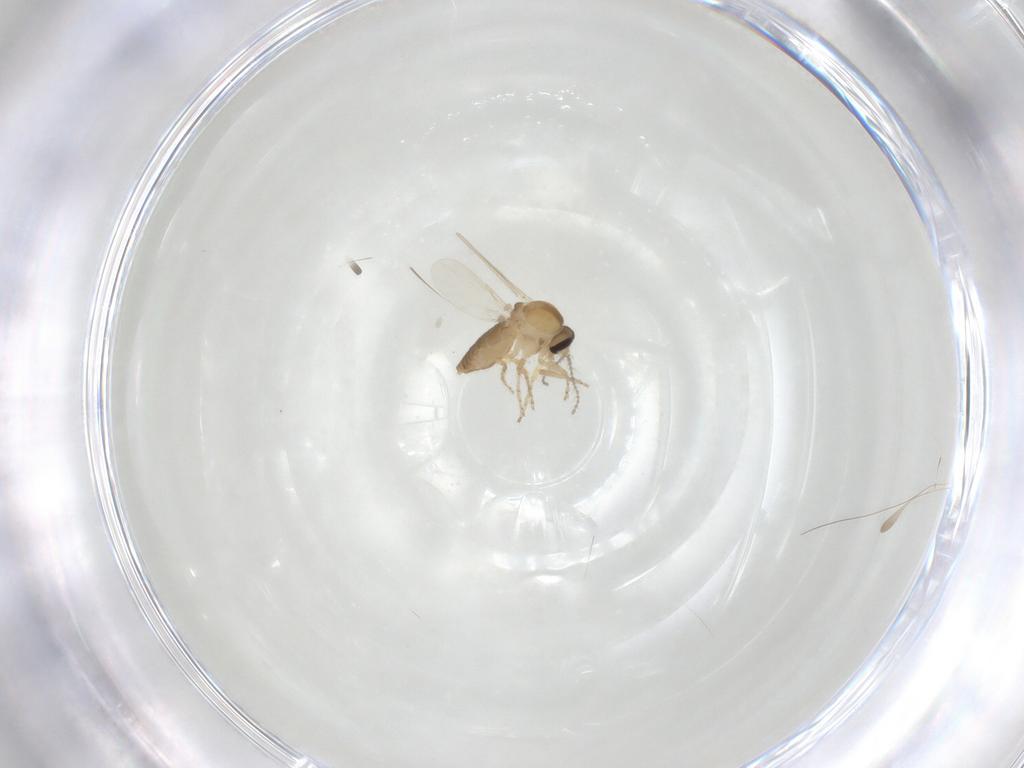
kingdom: Animalia
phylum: Arthropoda
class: Insecta
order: Diptera
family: Ceratopogonidae
